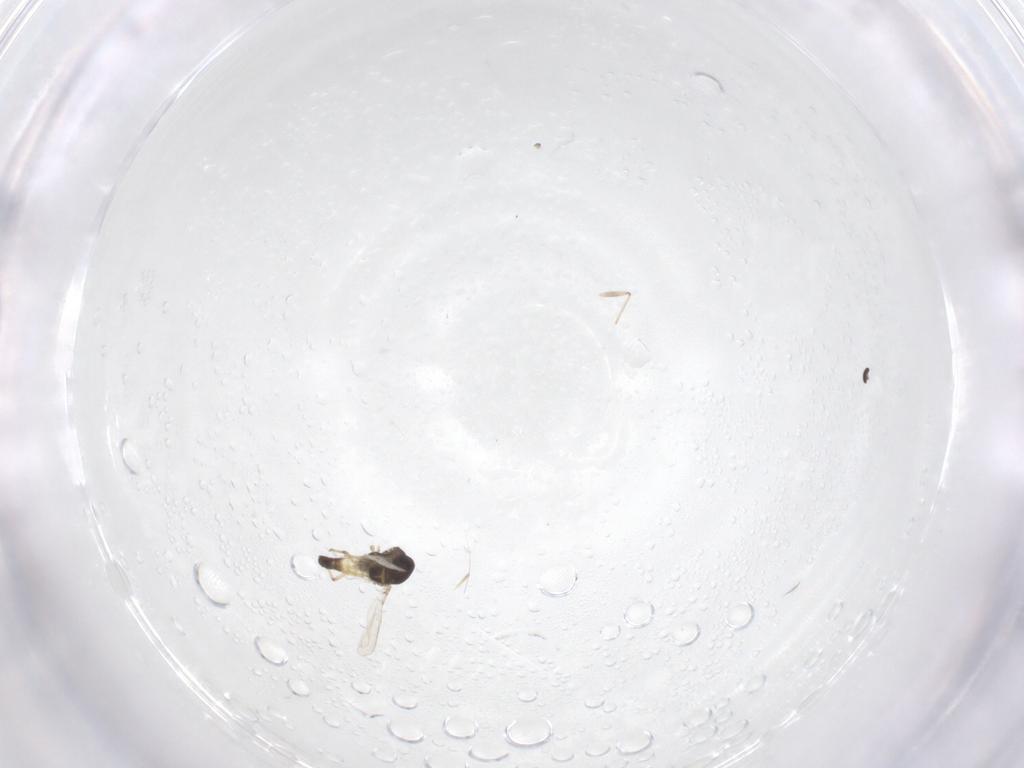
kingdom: Animalia
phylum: Arthropoda
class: Insecta
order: Diptera
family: Chironomidae
